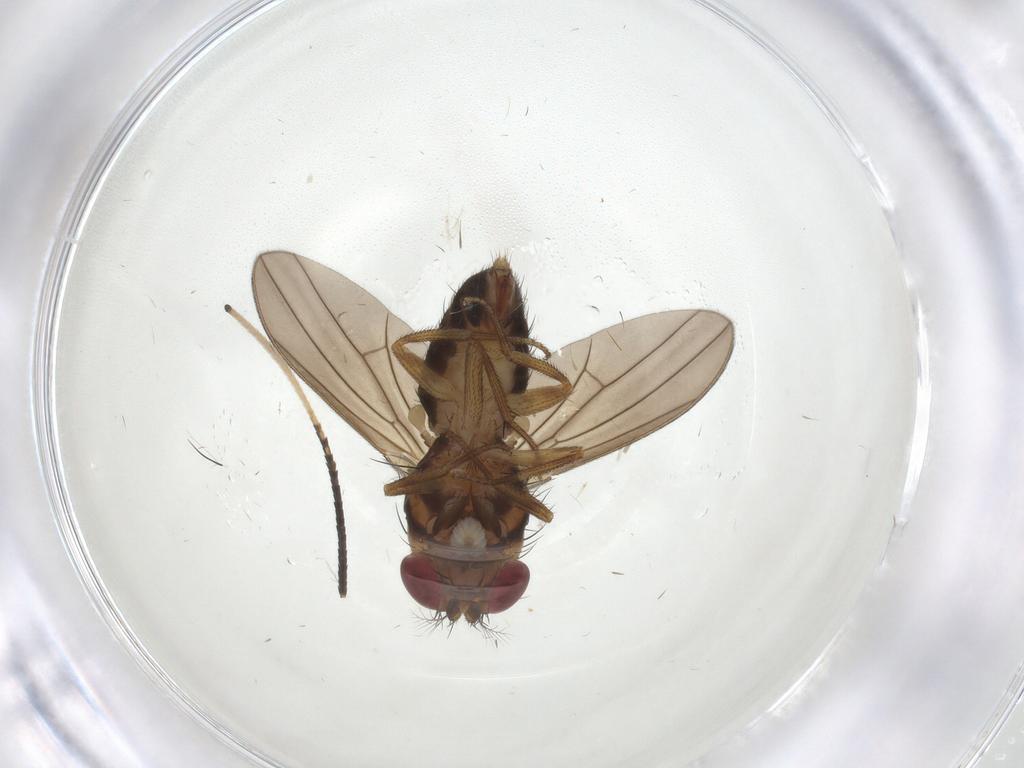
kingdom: Animalia
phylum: Arthropoda
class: Insecta
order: Diptera
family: Drosophilidae
